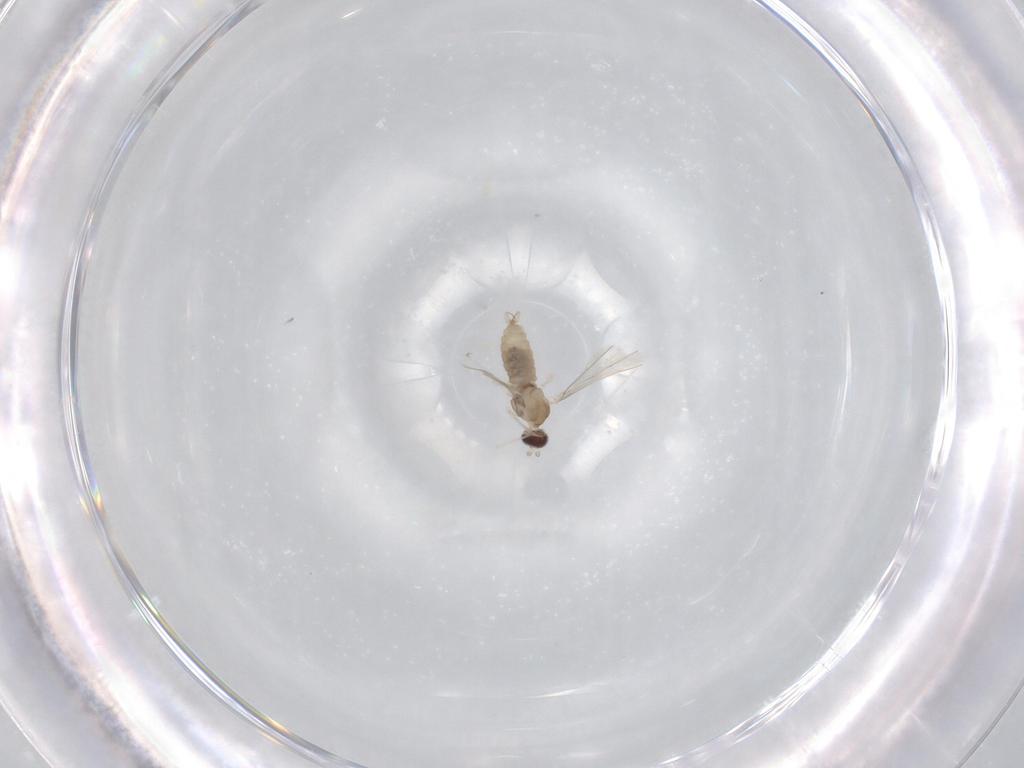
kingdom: Animalia
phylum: Arthropoda
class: Insecta
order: Diptera
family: Cecidomyiidae
